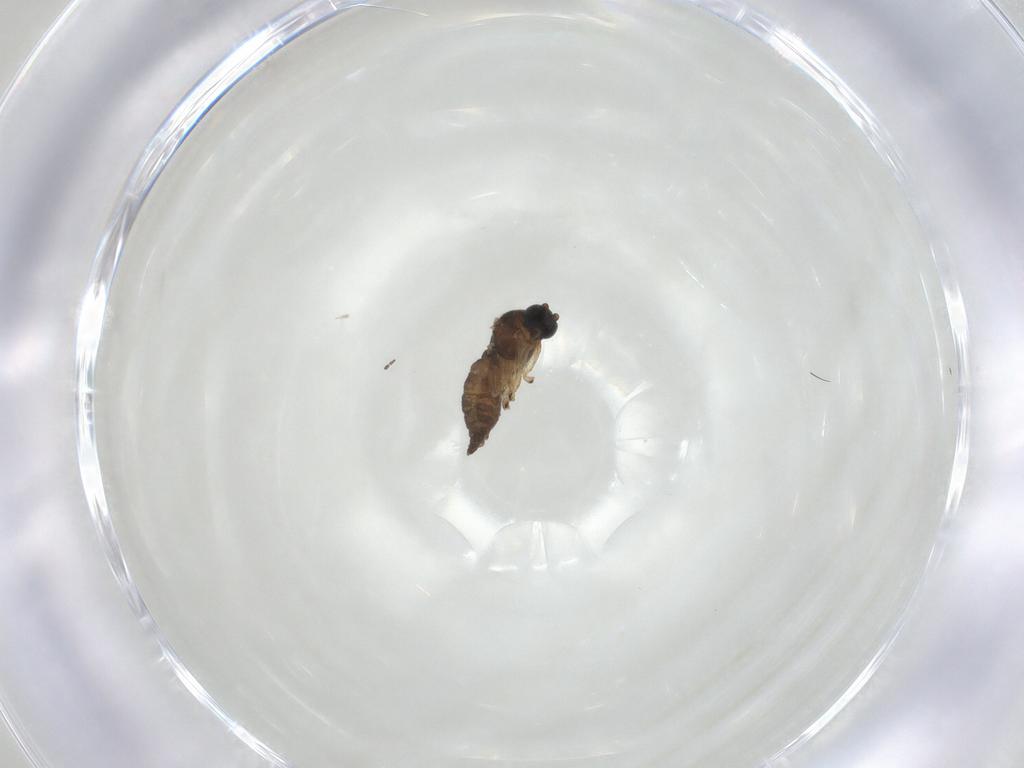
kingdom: Animalia
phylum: Arthropoda
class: Insecta
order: Diptera
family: Sciaridae
